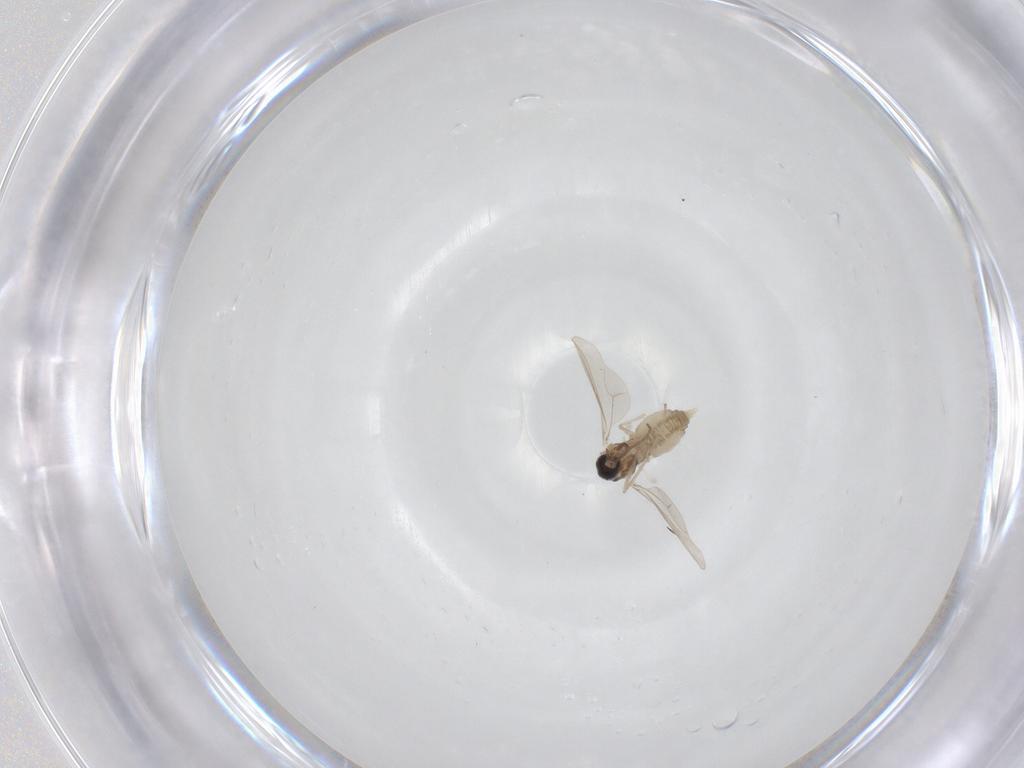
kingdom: Animalia
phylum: Arthropoda
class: Insecta
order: Diptera
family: Cecidomyiidae
